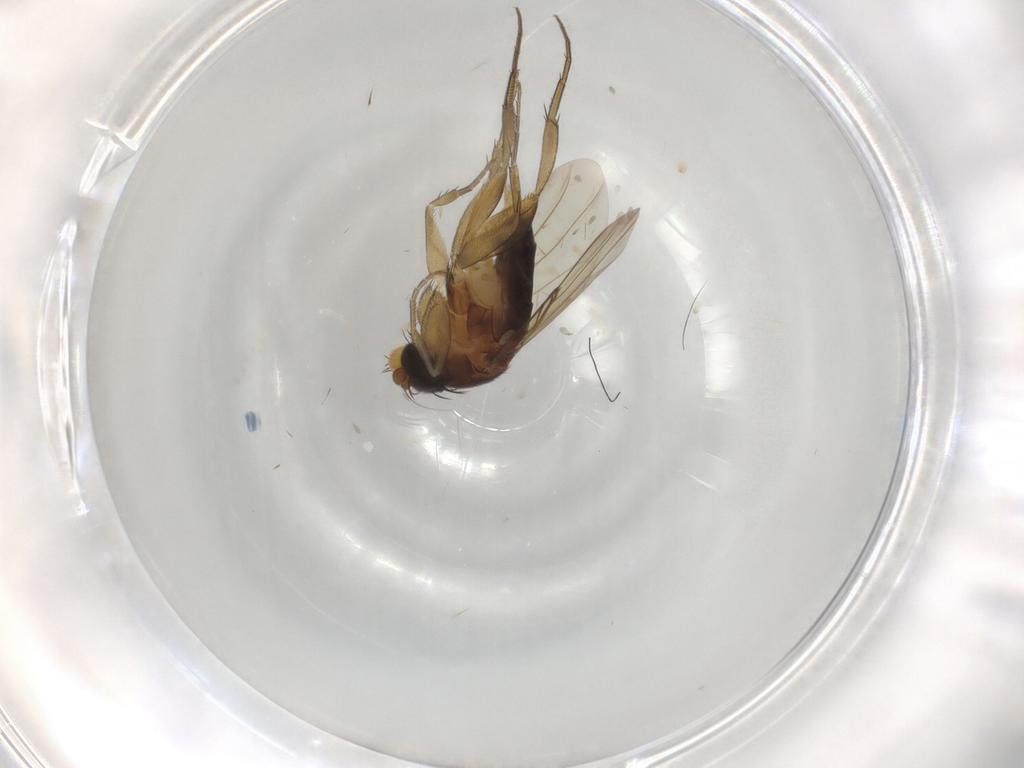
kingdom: Animalia
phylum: Arthropoda
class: Insecta
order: Diptera
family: Phoridae
